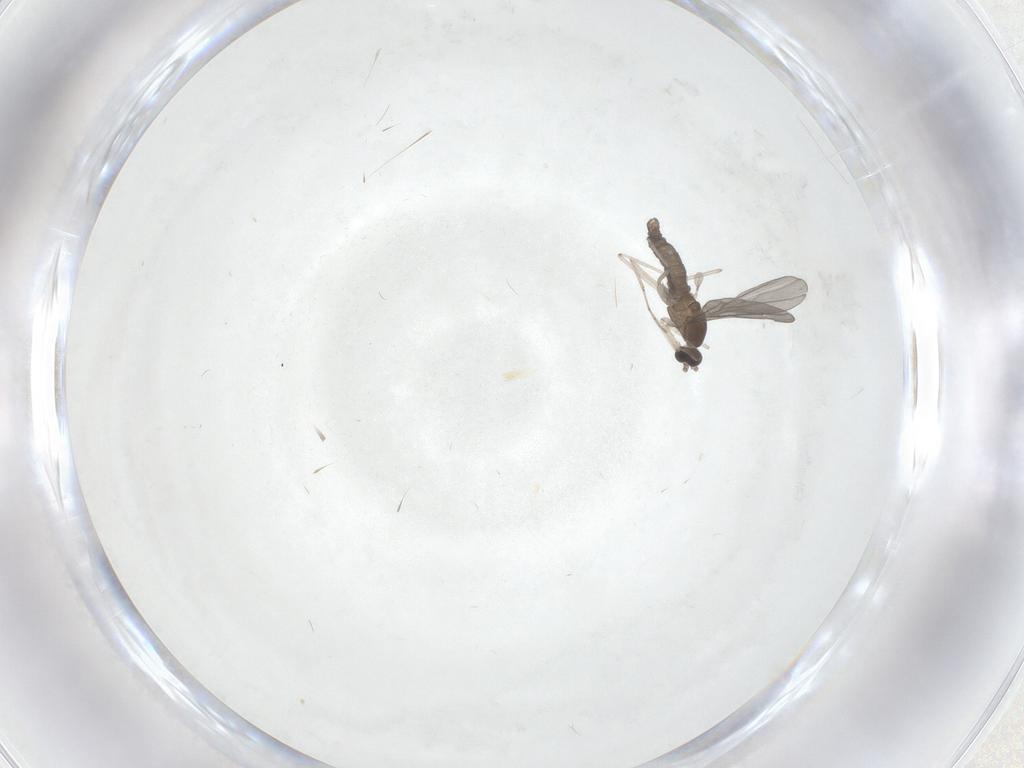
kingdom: Animalia
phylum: Arthropoda
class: Insecta
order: Diptera
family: Cecidomyiidae
